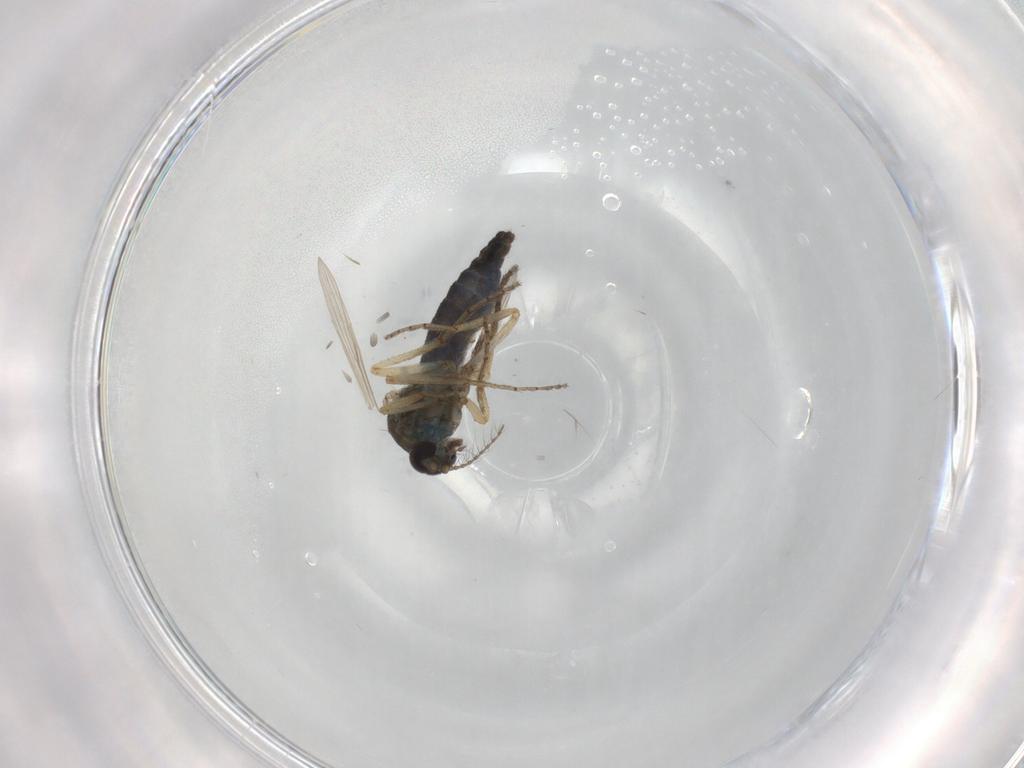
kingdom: Animalia
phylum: Arthropoda
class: Insecta
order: Diptera
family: Ceratopogonidae
